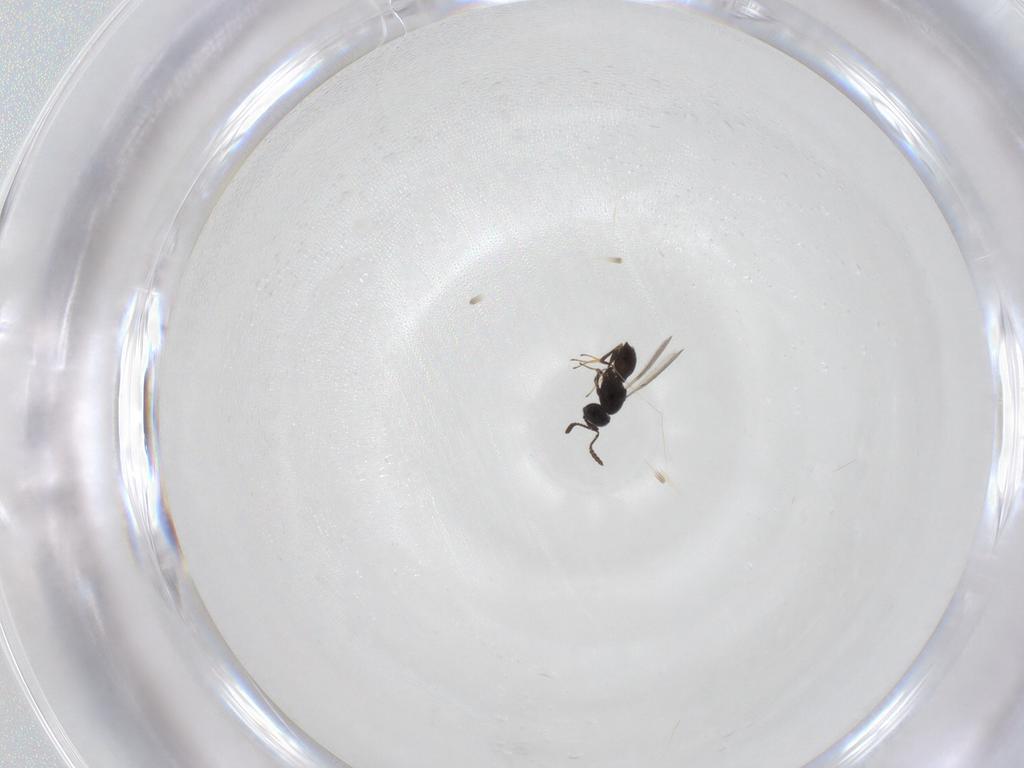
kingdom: Animalia
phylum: Arthropoda
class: Insecta
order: Hymenoptera
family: Scelionidae
